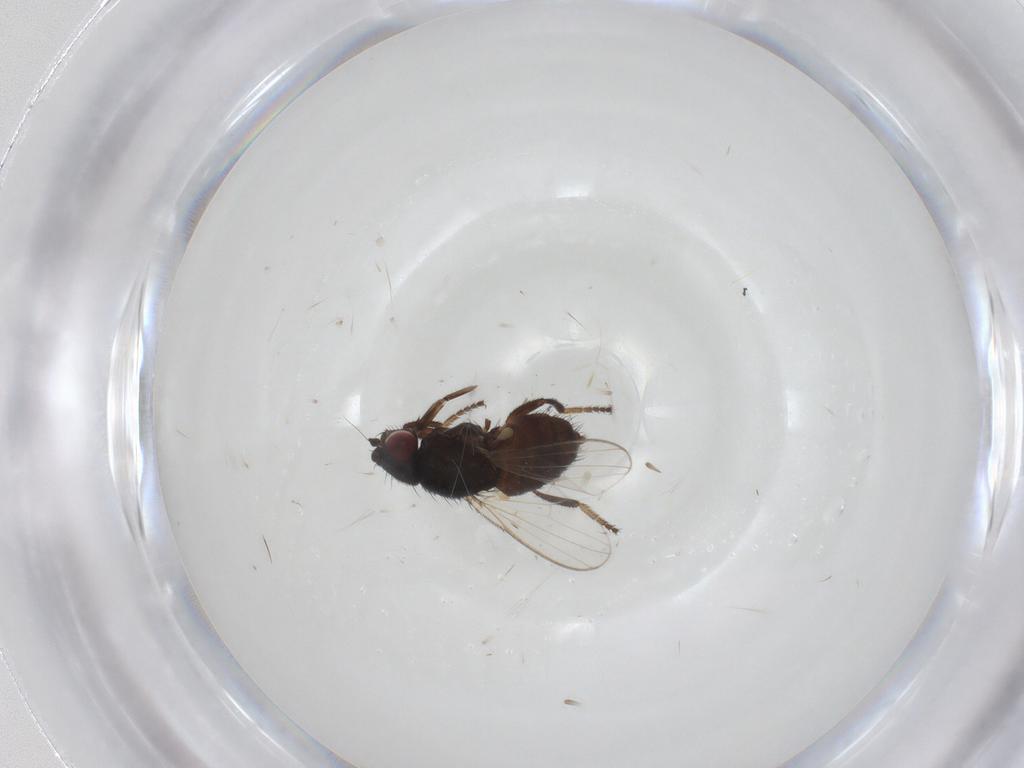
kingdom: Animalia
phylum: Arthropoda
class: Insecta
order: Diptera
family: Milichiidae
